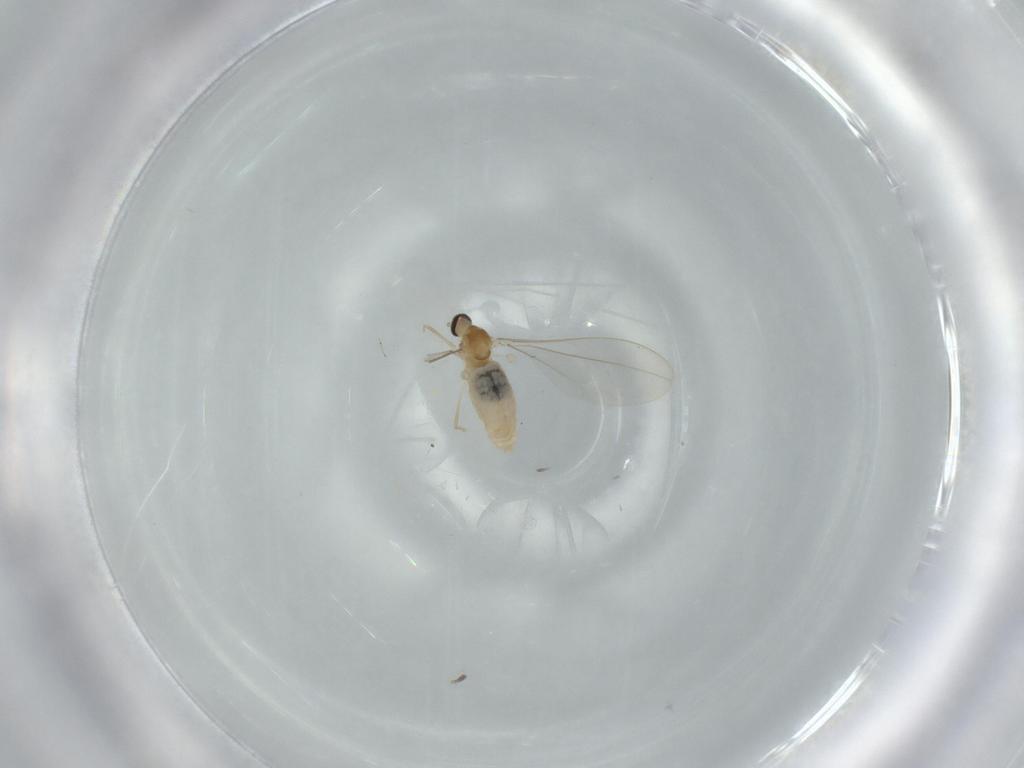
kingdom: Animalia
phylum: Arthropoda
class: Insecta
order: Diptera
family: Cecidomyiidae
